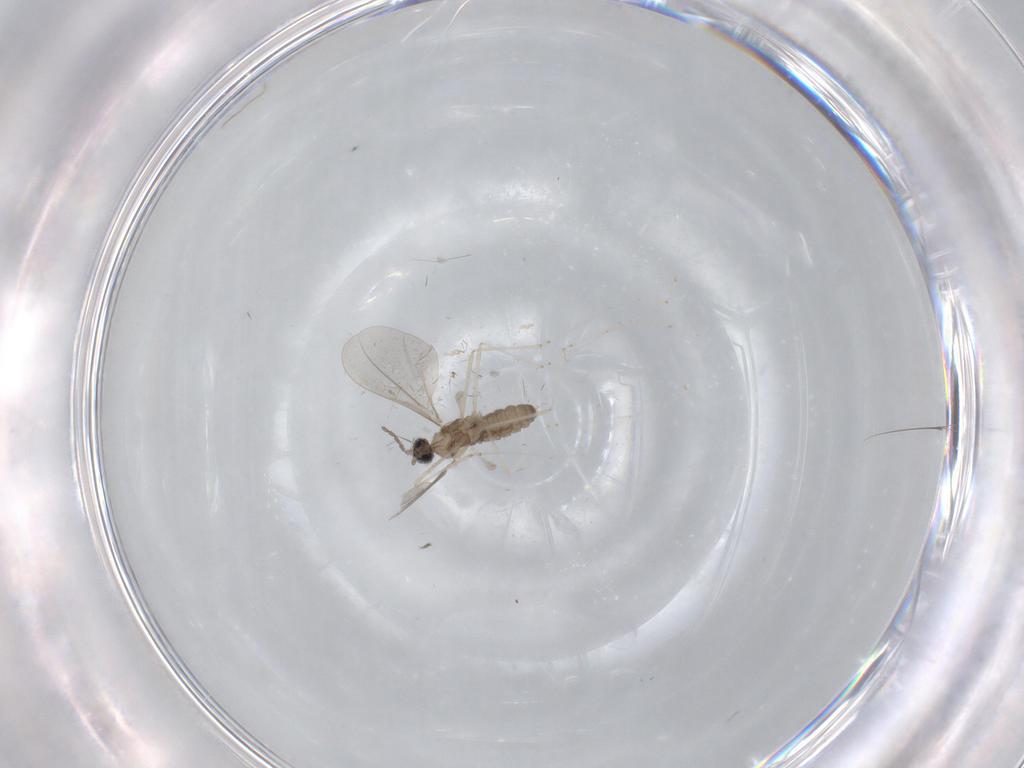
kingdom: Animalia
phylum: Arthropoda
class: Insecta
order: Diptera
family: Cecidomyiidae
